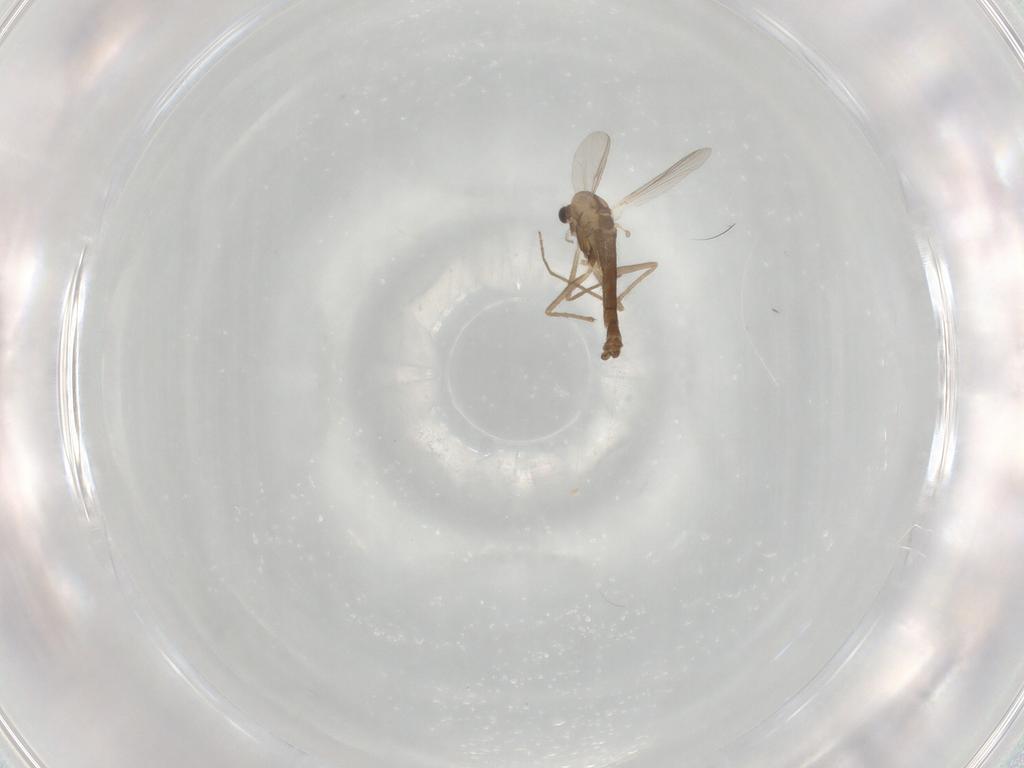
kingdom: Animalia
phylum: Arthropoda
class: Insecta
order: Diptera
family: Chironomidae
